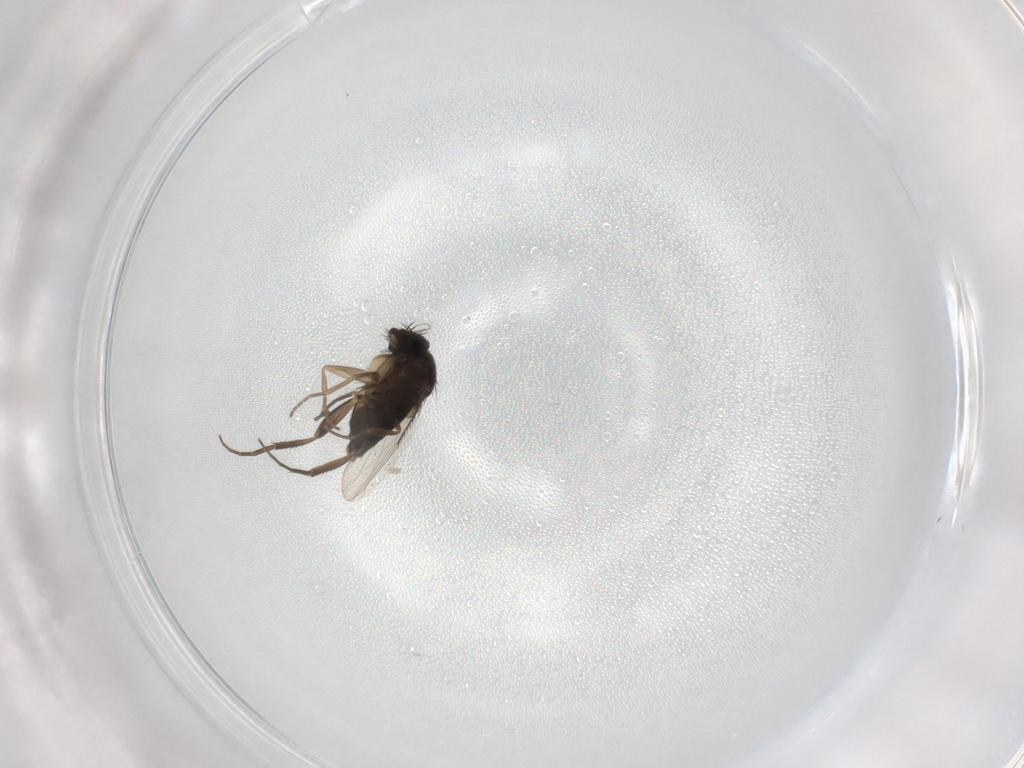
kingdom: Animalia
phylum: Arthropoda
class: Insecta
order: Diptera
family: Phoridae
